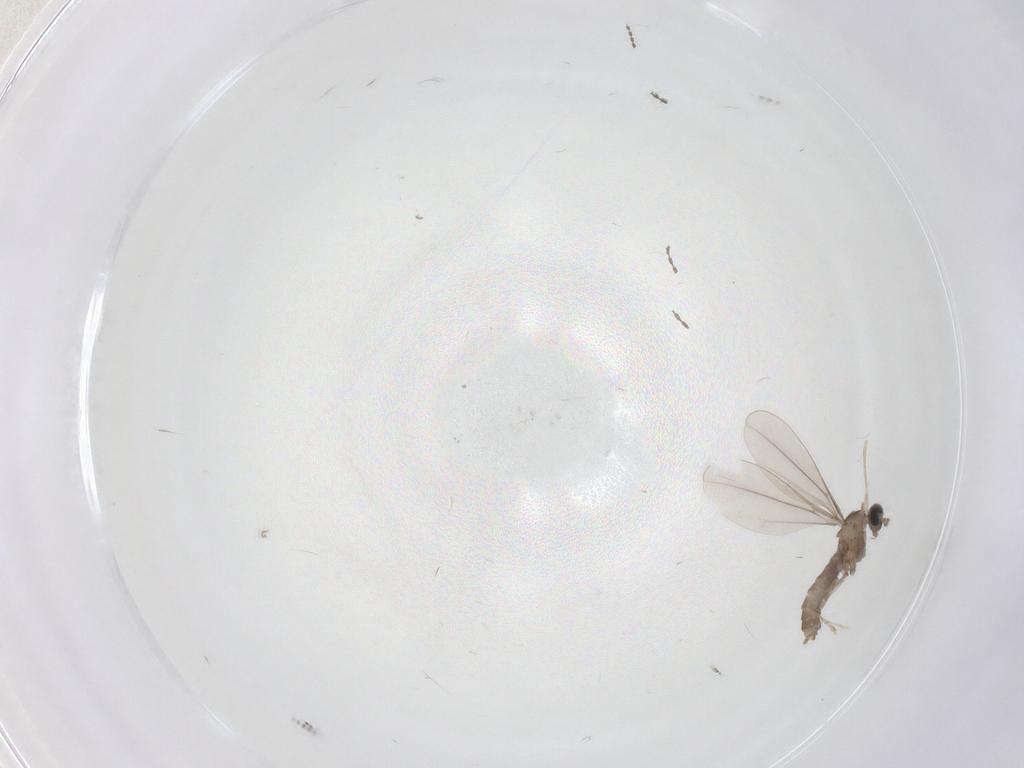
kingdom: Animalia
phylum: Arthropoda
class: Insecta
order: Diptera
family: Cecidomyiidae
